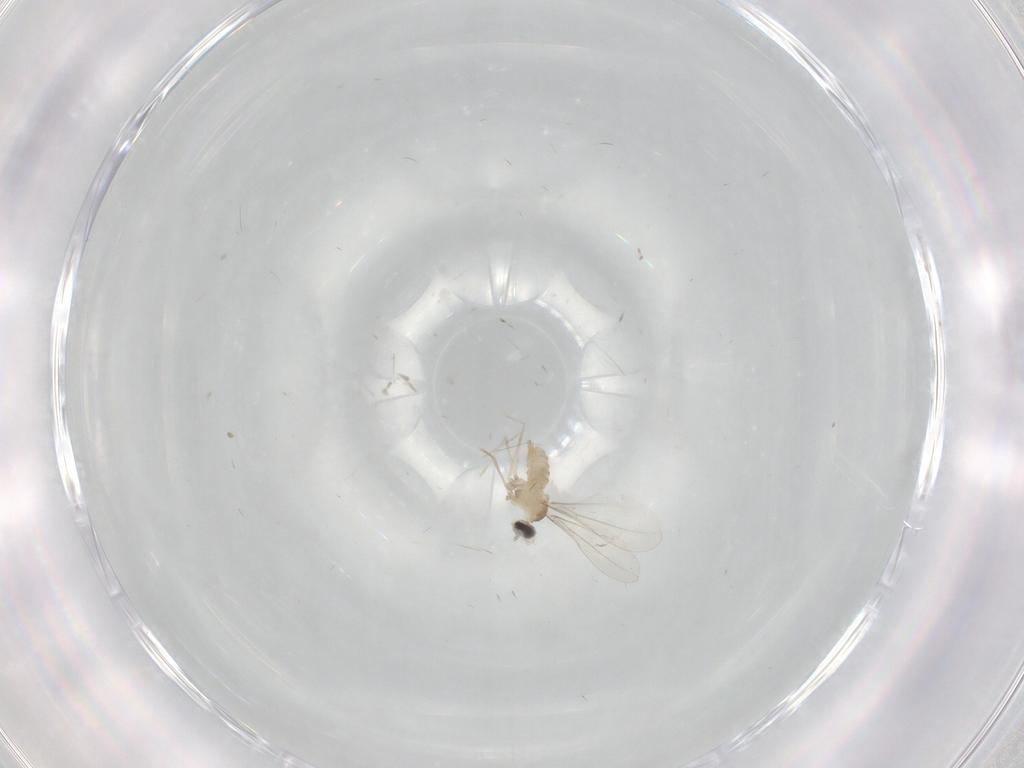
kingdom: Animalia
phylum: Arthropoda
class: Insecta
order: Diptera
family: Cecidomyiidae
